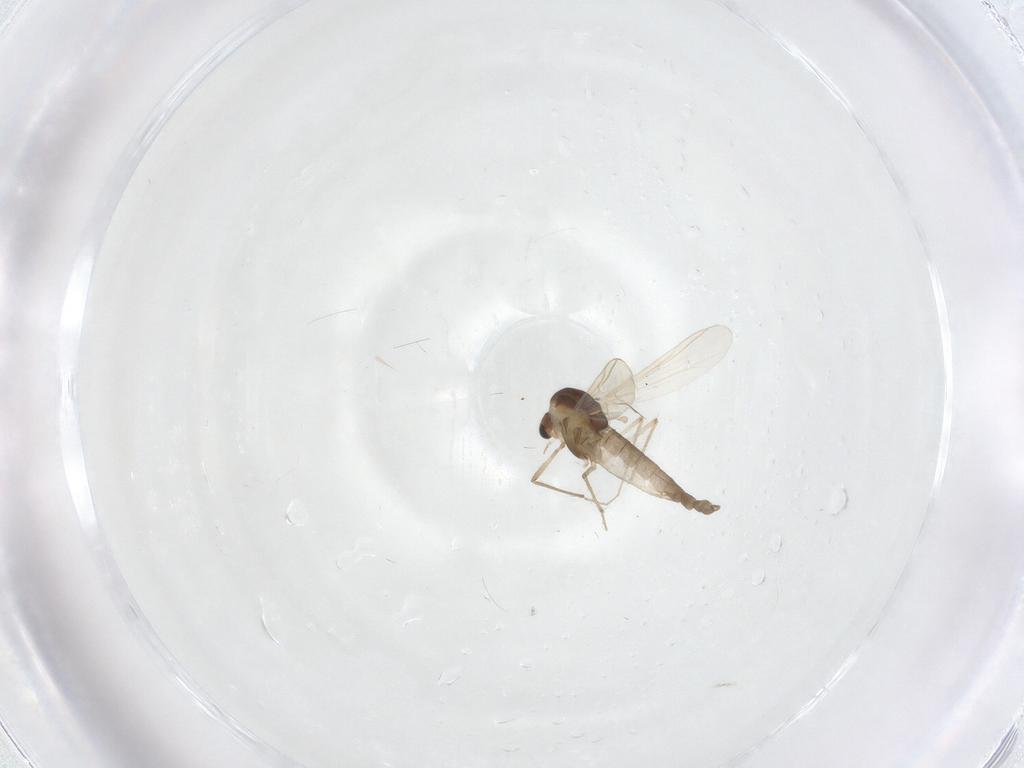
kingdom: Animalia
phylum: Arthropoda
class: Insecta
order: Diptera
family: Chironomidae
